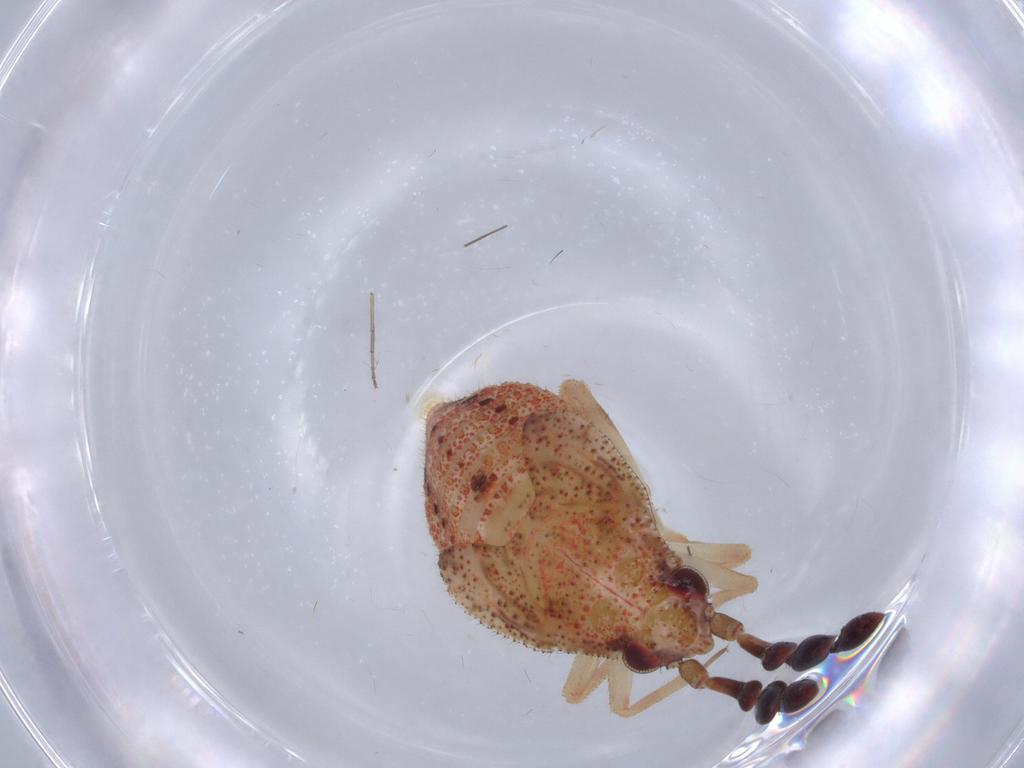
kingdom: Animalia
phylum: Arthropoda
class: Insecta
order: Hemiptera
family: Miridae
